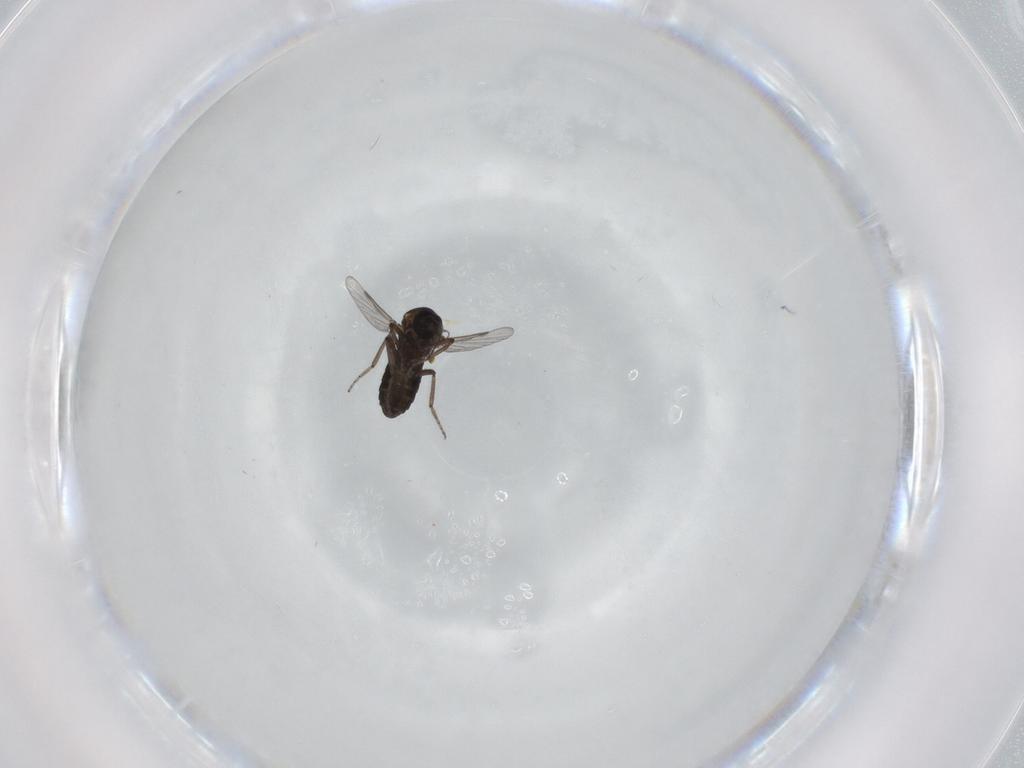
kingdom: Animalia
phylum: Arthropoda
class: Insecta
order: Diptera
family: Ceratopogonidae
